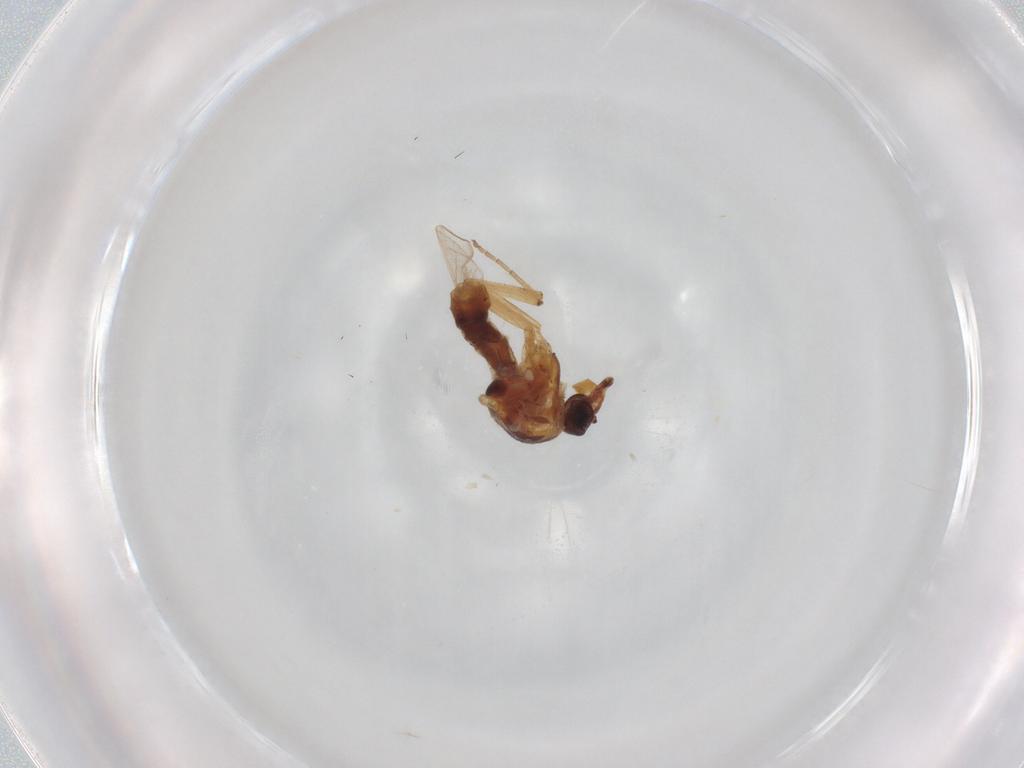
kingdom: Animalia
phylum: Arthropoda
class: Insecta
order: Diptera
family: Ceratopogonidae
